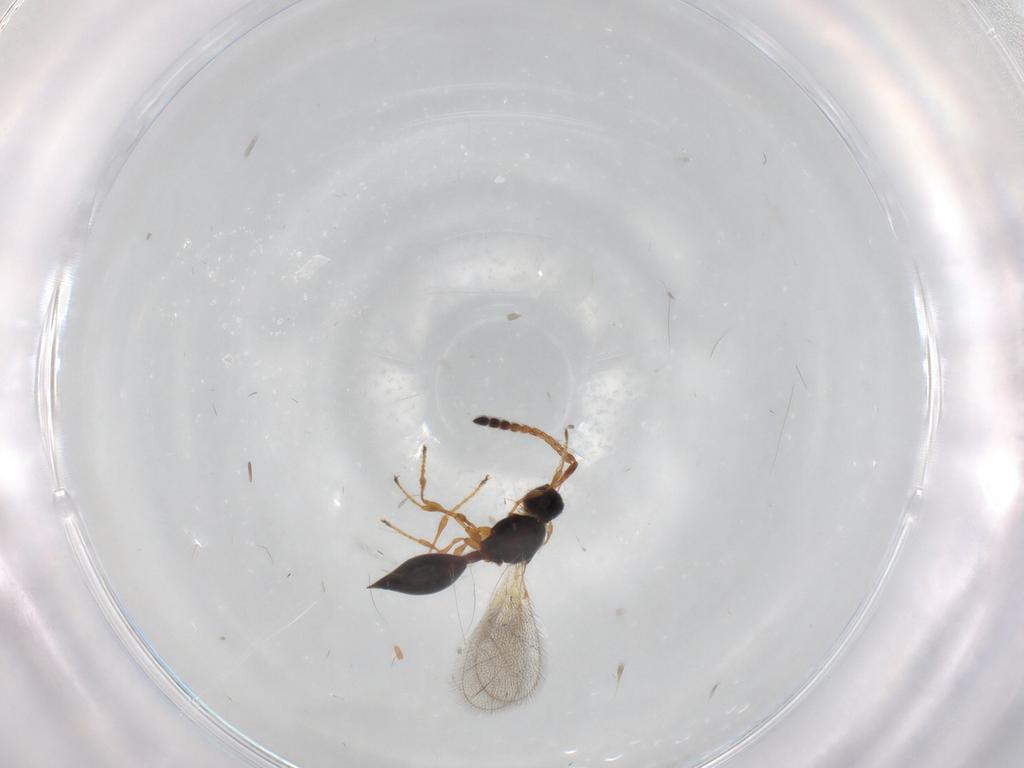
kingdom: Animalia
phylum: Arthropoda
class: Insecta
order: Hymenoptera
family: Diapriidae
